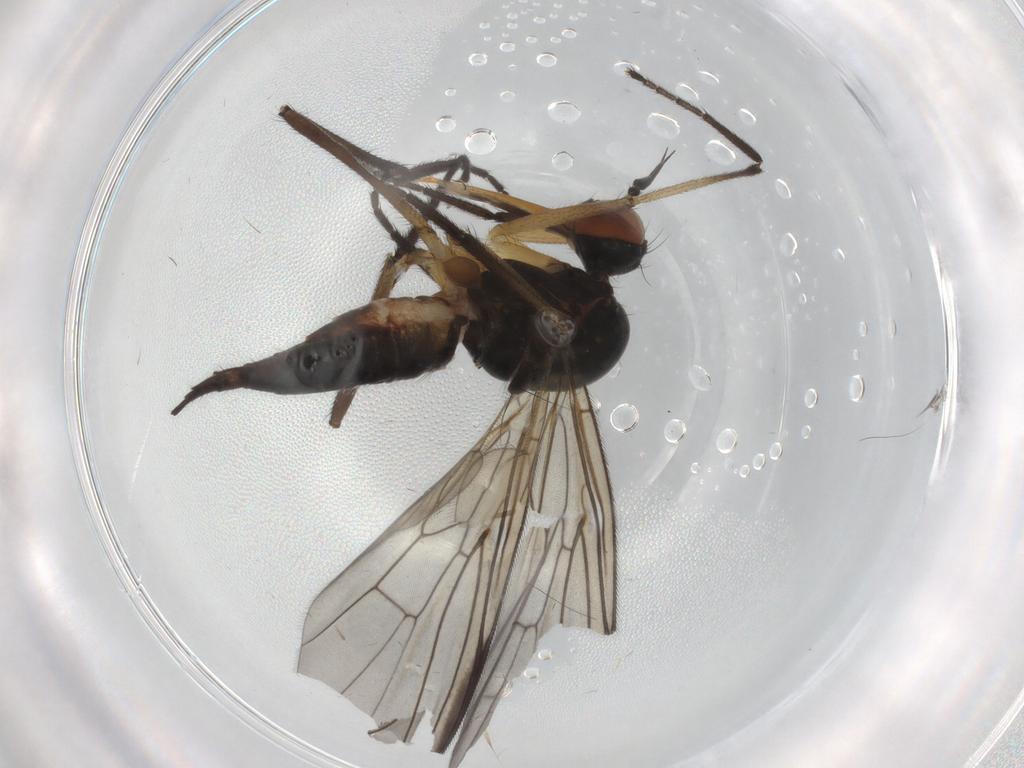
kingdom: Animalia
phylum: Arthropoda
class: Insecta
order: Diptera
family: Empididae
